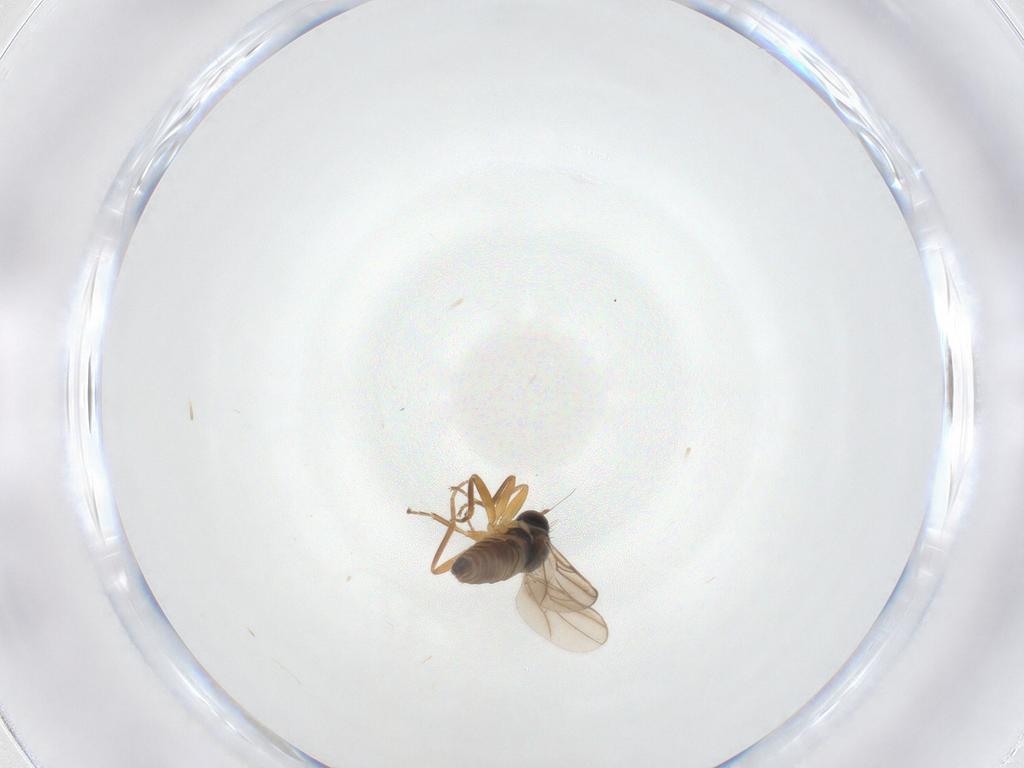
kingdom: Animalia
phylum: Arthropoda
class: Insecta
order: Diptera
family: Hybotidae
